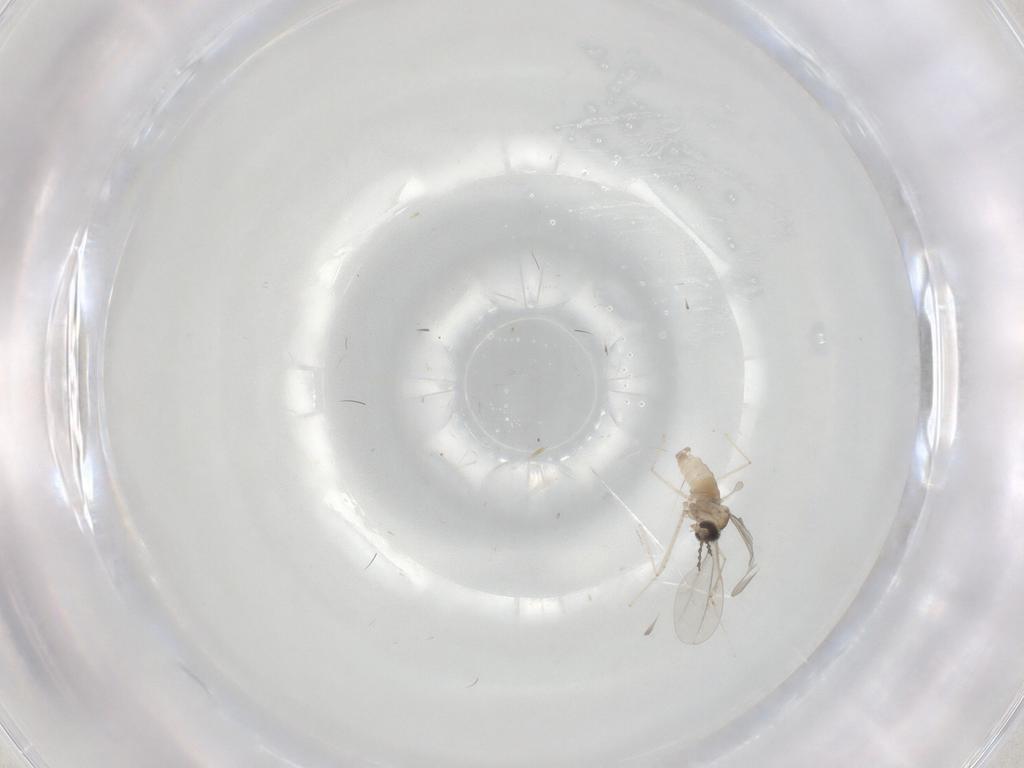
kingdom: Animalia
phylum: Arthropoda
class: Insecta
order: Diptera
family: Cecidomyiidae
